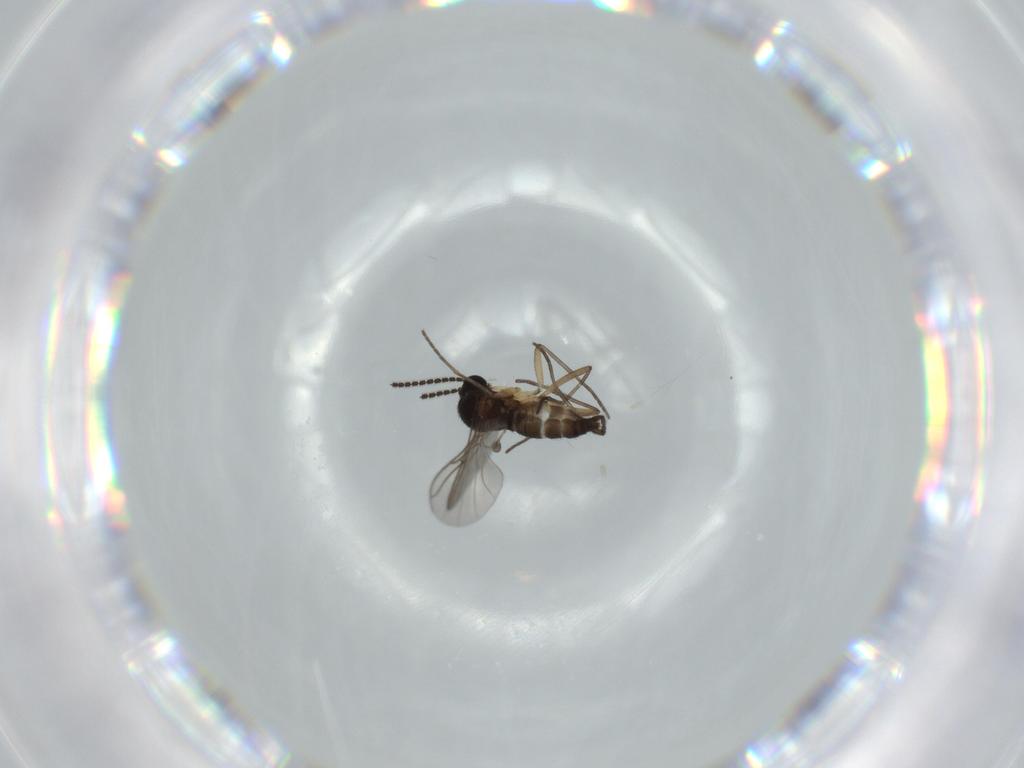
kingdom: Animalia
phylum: Arthropoda
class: Insecta
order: Diptera
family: Sciaridae
